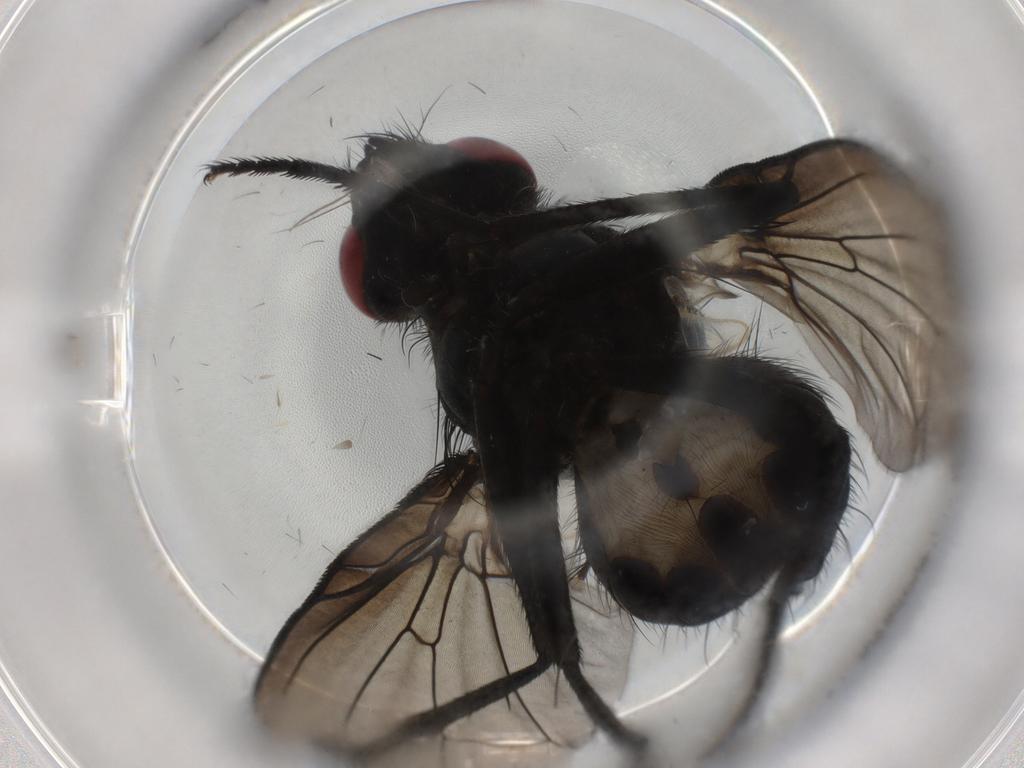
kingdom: Animalia
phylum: Arthropoda
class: Insecta
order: Diptera
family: Muscidae
